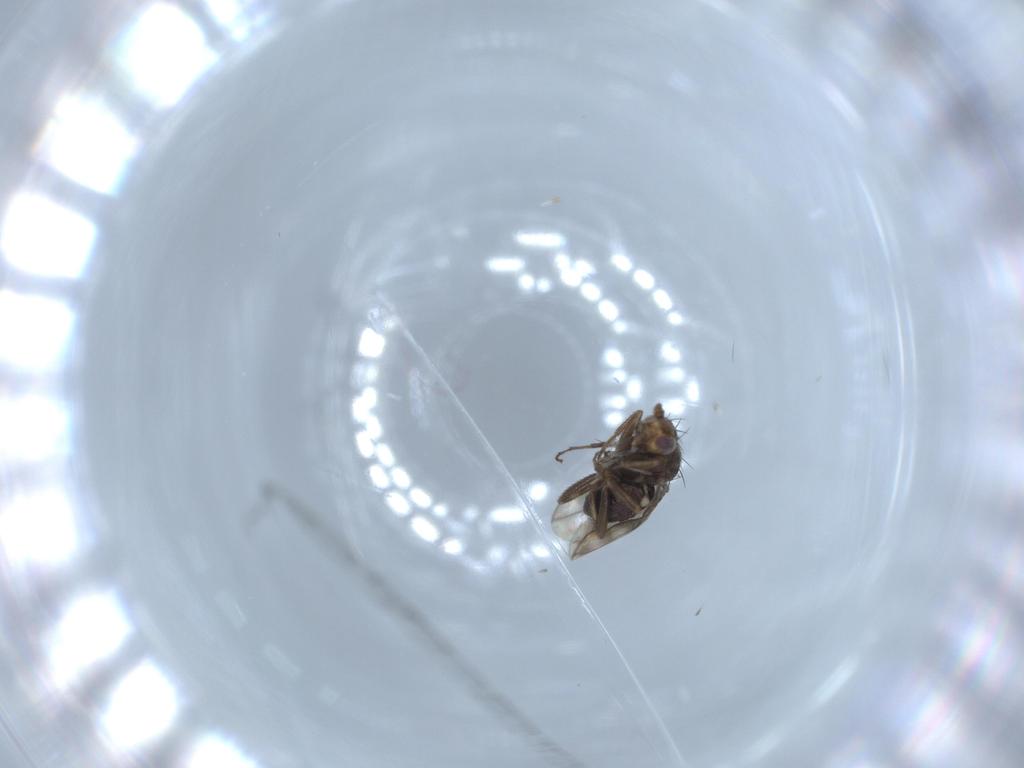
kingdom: Animalia
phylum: Arthropoda
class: Insecta
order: Diptera
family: Sphaeroceridae
